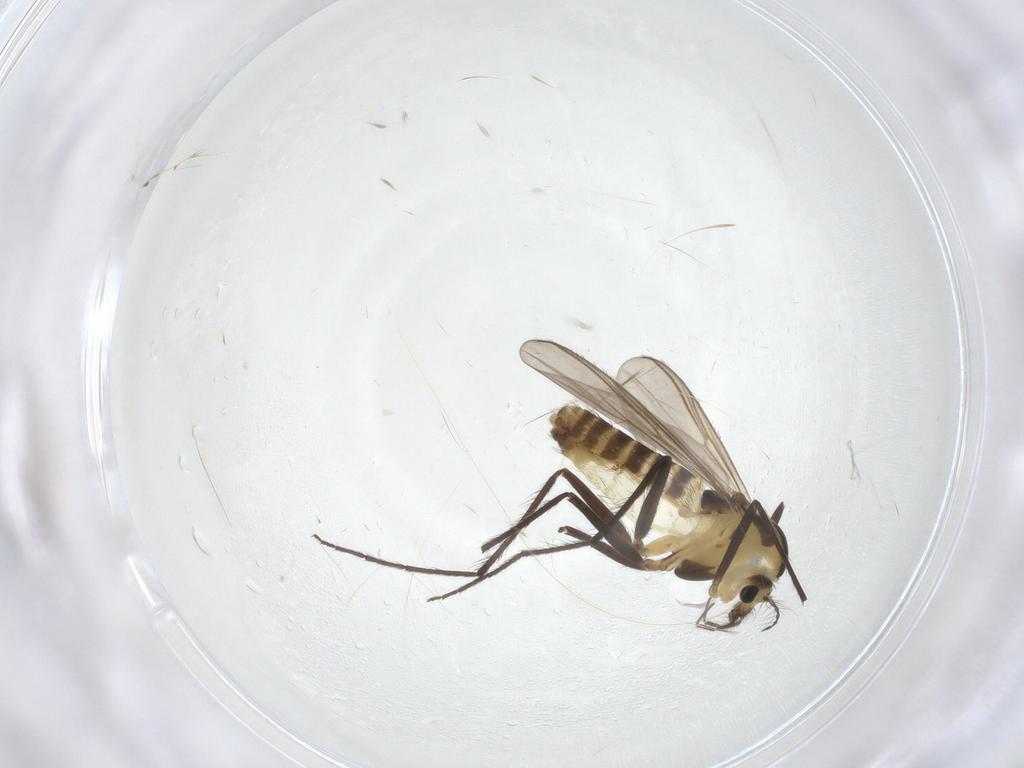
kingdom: Animalia
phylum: Arthropoda
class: Insecta
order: Diptera
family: Chironomidae
